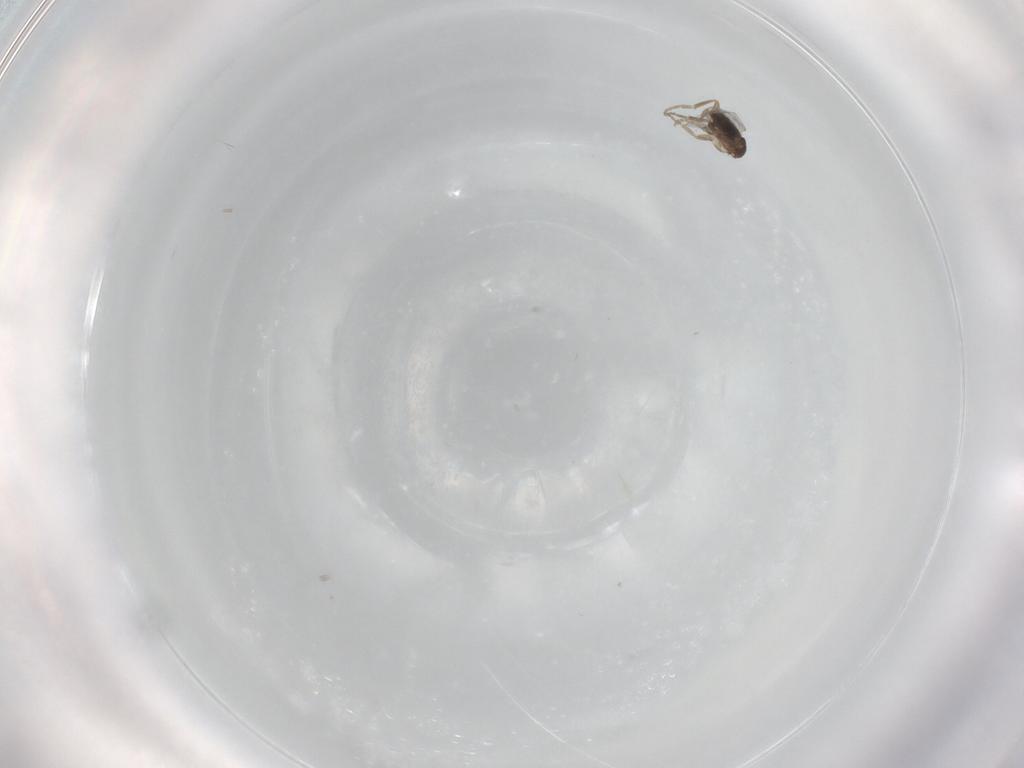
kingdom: Animalia
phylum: Arthropoda
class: Insecta
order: Diptera
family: Phoridae
